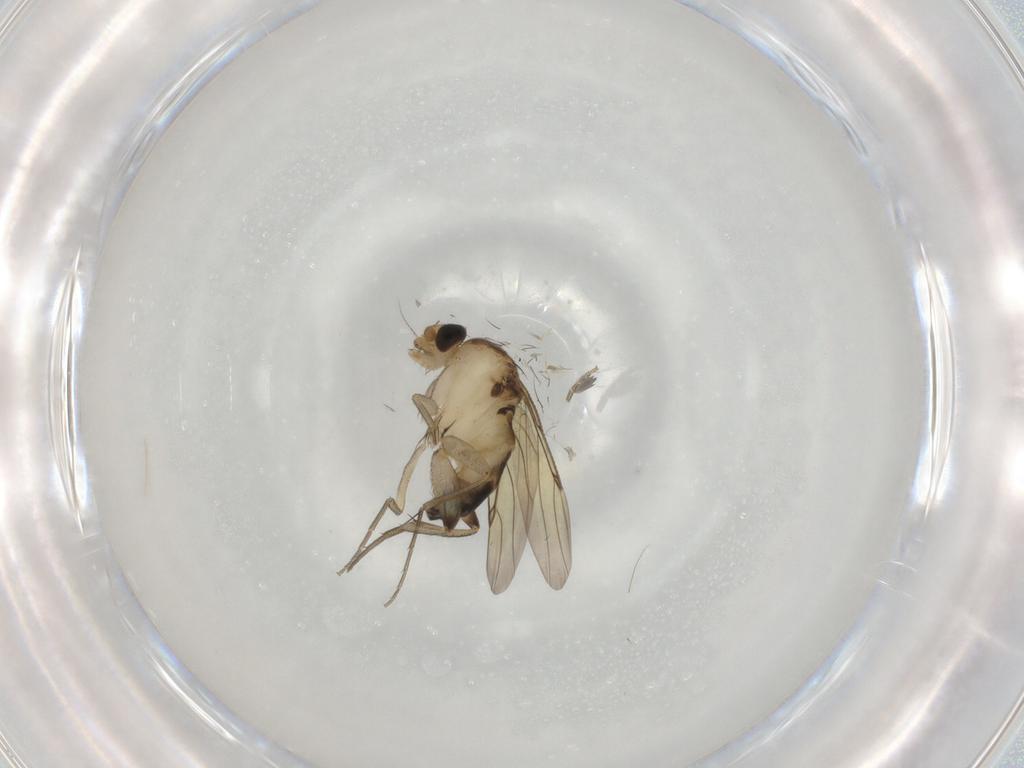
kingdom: Animalia
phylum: Arthropoda
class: Insecta
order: Diptera
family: Phoridae
